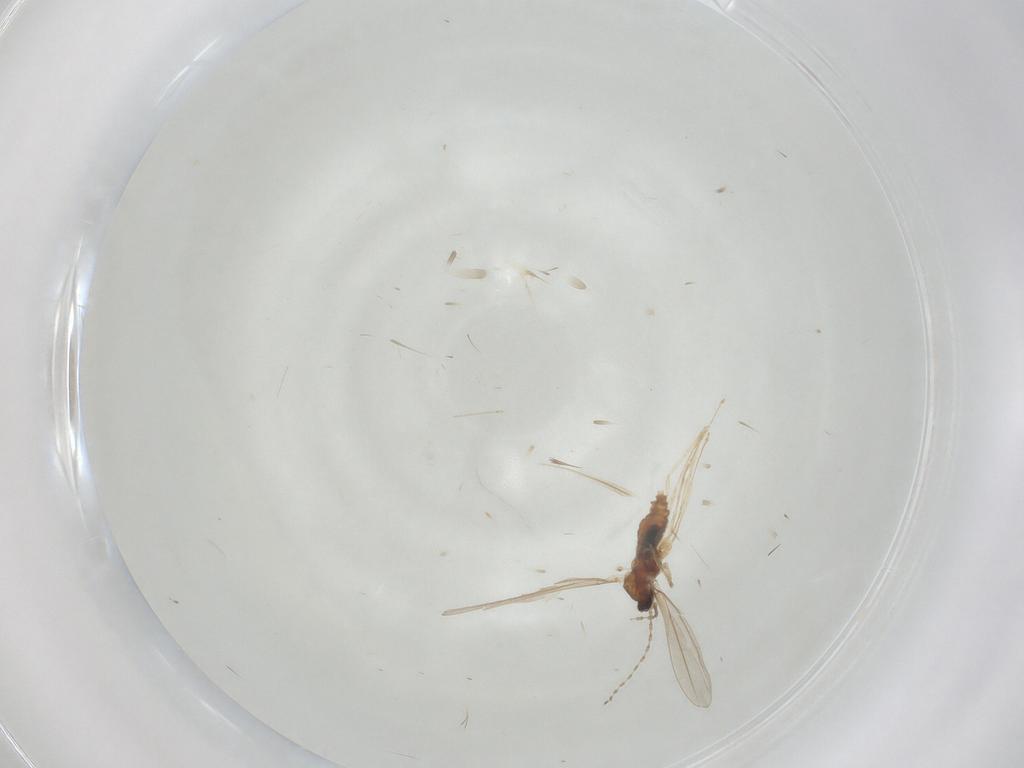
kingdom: Animalia
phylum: Arthropoda
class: Insecta
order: Diptera
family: Cecidomyiidae
